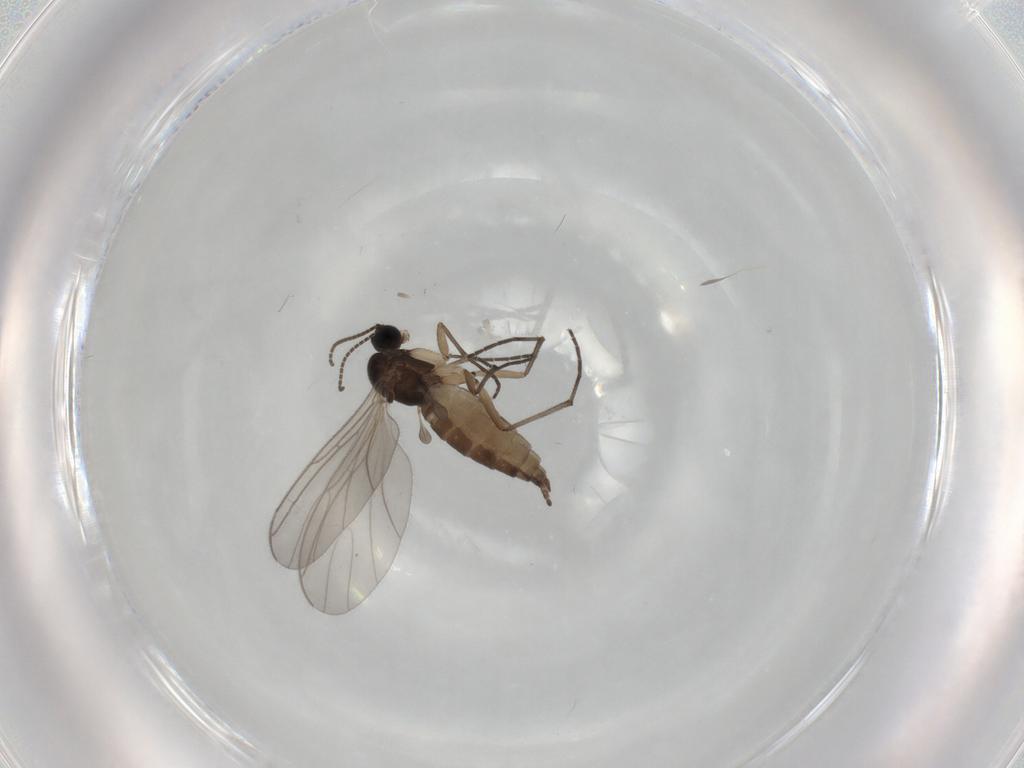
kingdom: Animalia
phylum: Arthropoda
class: Insecta
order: Diptera
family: Sciaridae
